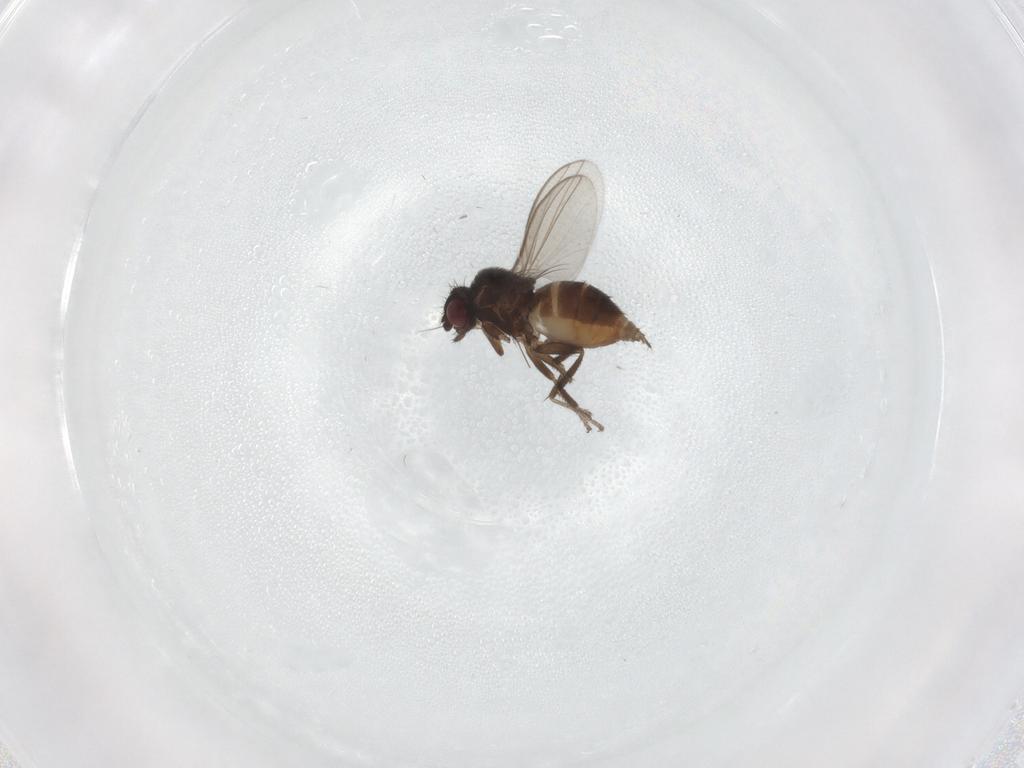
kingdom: Animalia
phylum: Arthropoda
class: Insecta
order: Diptera
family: Milichiidae
